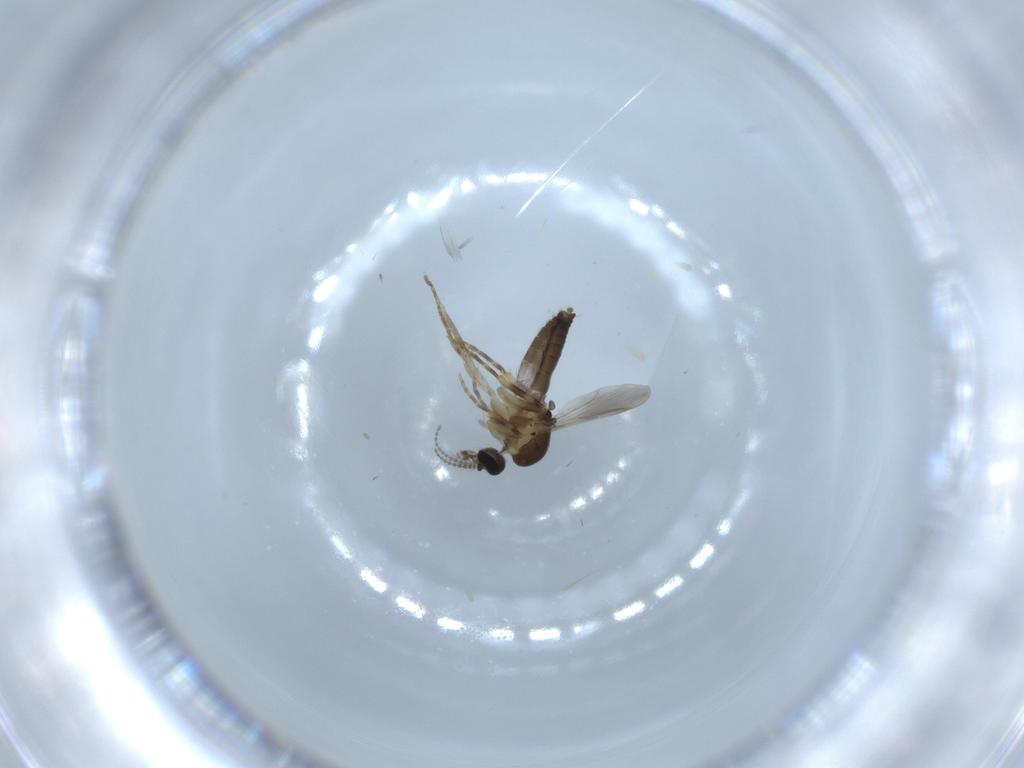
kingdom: Animalia
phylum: Arthropoda
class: Insecta
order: Diptera
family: Ceratopogonidae
